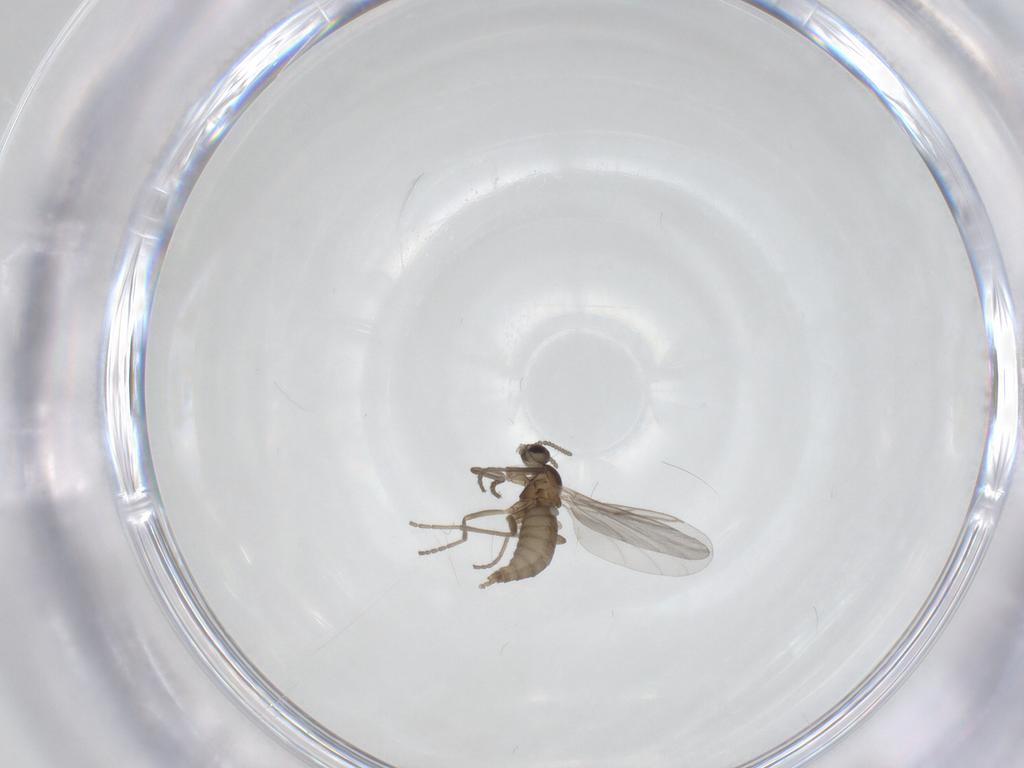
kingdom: Animalia
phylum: Arthropoda
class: Insecta
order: Diptera
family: Cecidomyiidae
